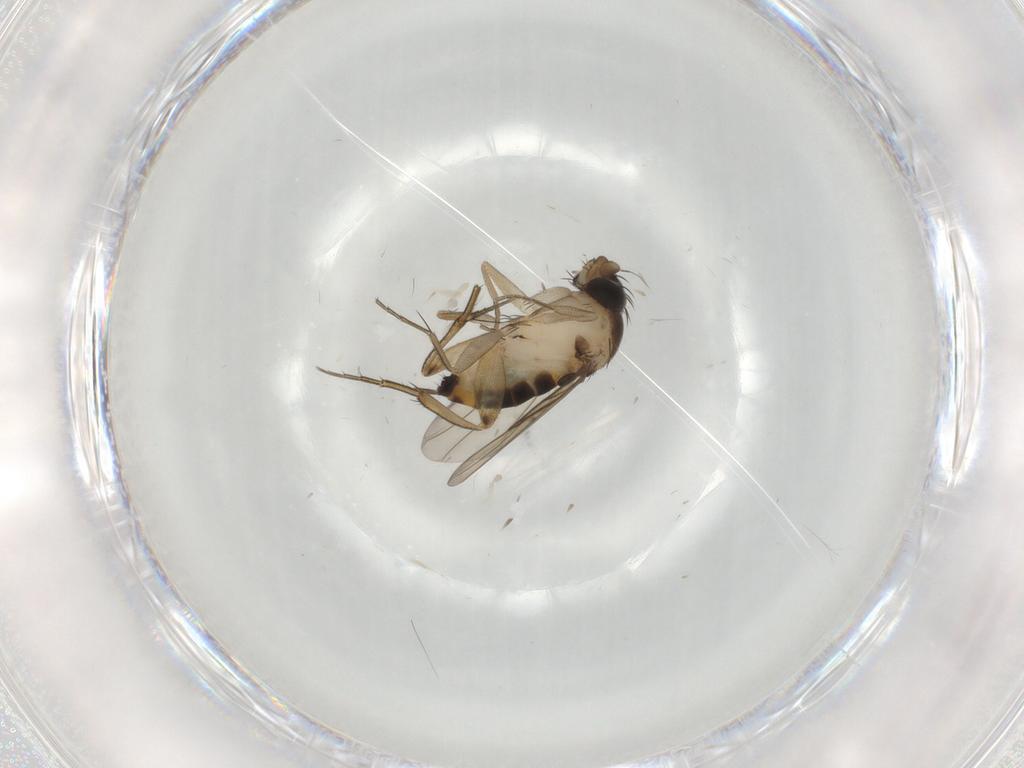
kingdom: Animalia
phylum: Arthropoda
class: Insecta
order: Diptera
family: Phoridae
